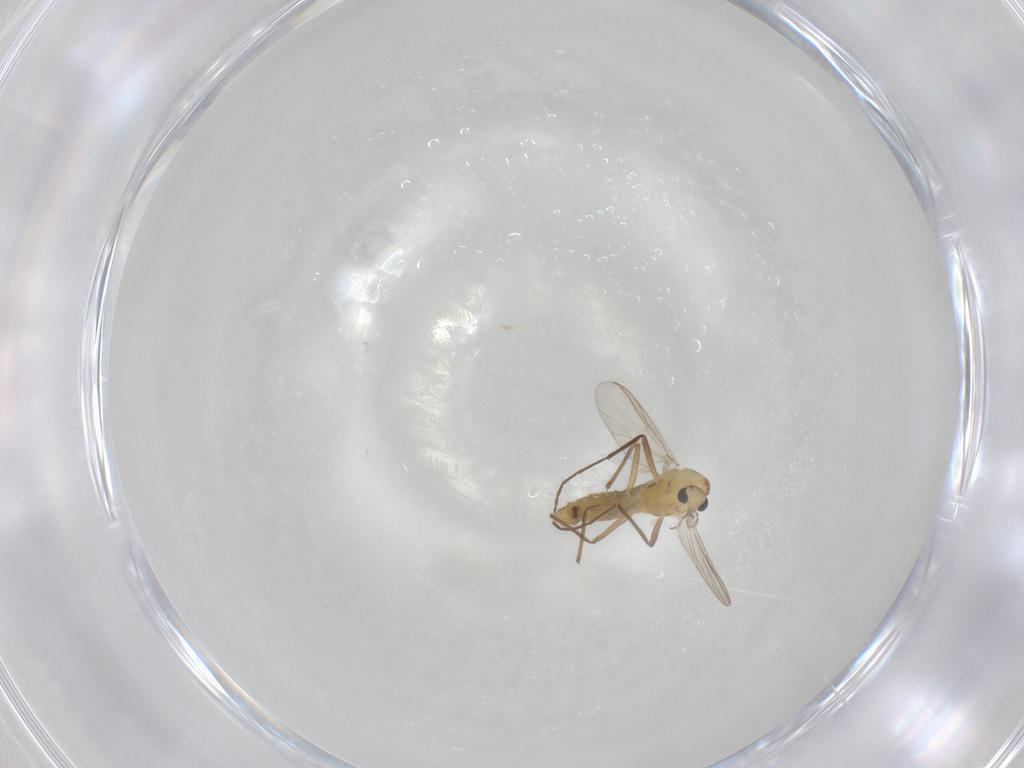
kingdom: Animalia
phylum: Arthropoda
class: Insecta
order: Diptera
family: Chironomidae
